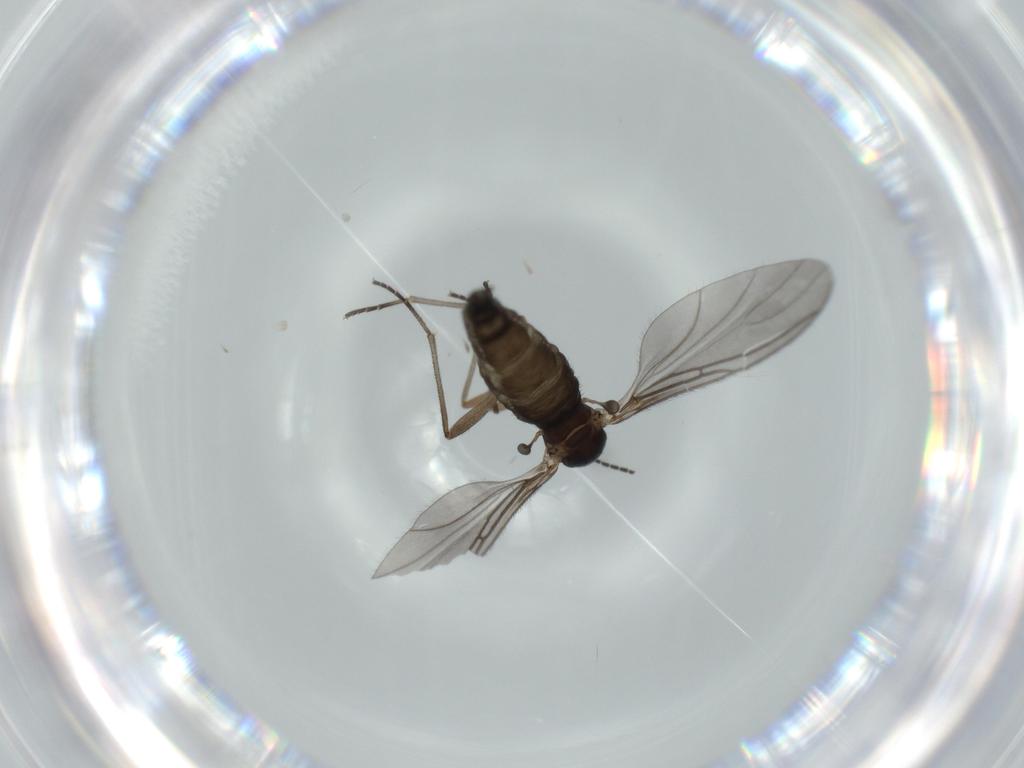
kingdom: Animalia
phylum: Arthropoda
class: Insecta
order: Diptera
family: Sciaridae
